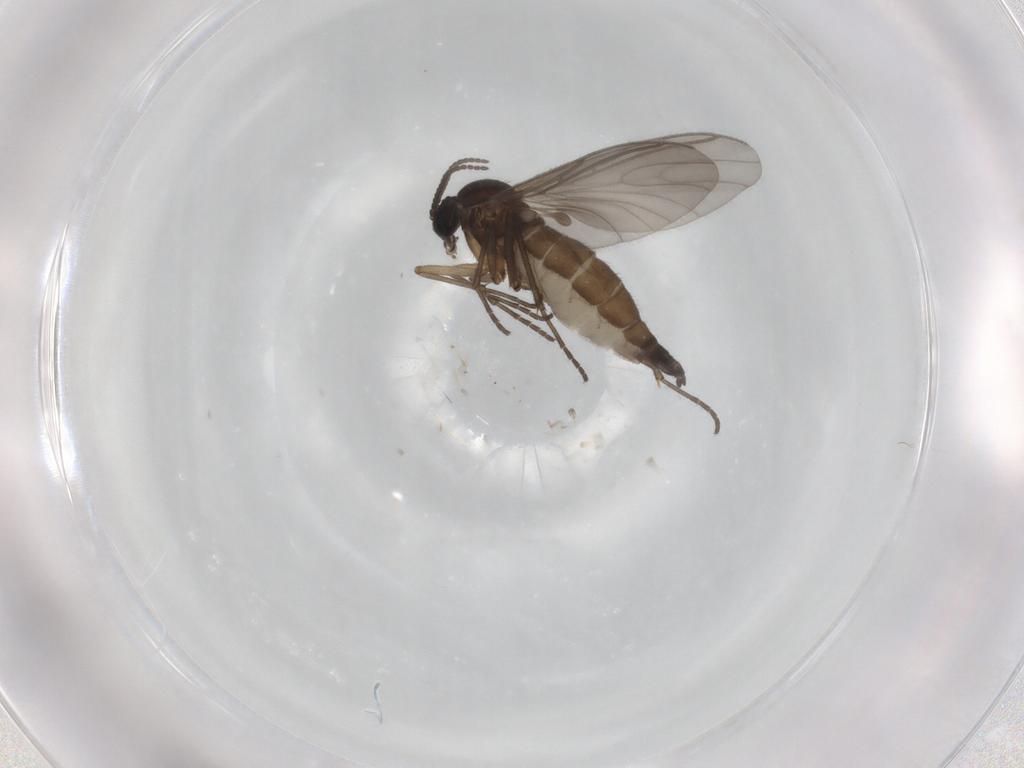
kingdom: Animalia
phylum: Arthropoda
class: Insecta
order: Diptera
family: Sciaridae
